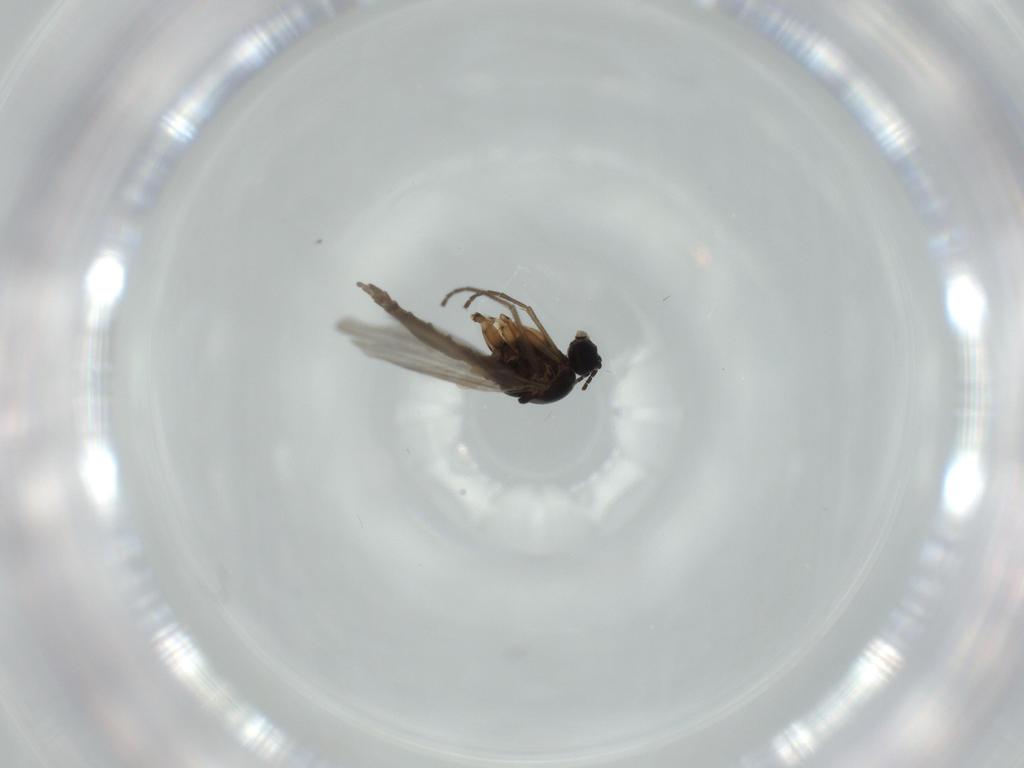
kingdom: Animalia
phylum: Arthropoda
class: Insecta
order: Diptera
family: Sciaridae
